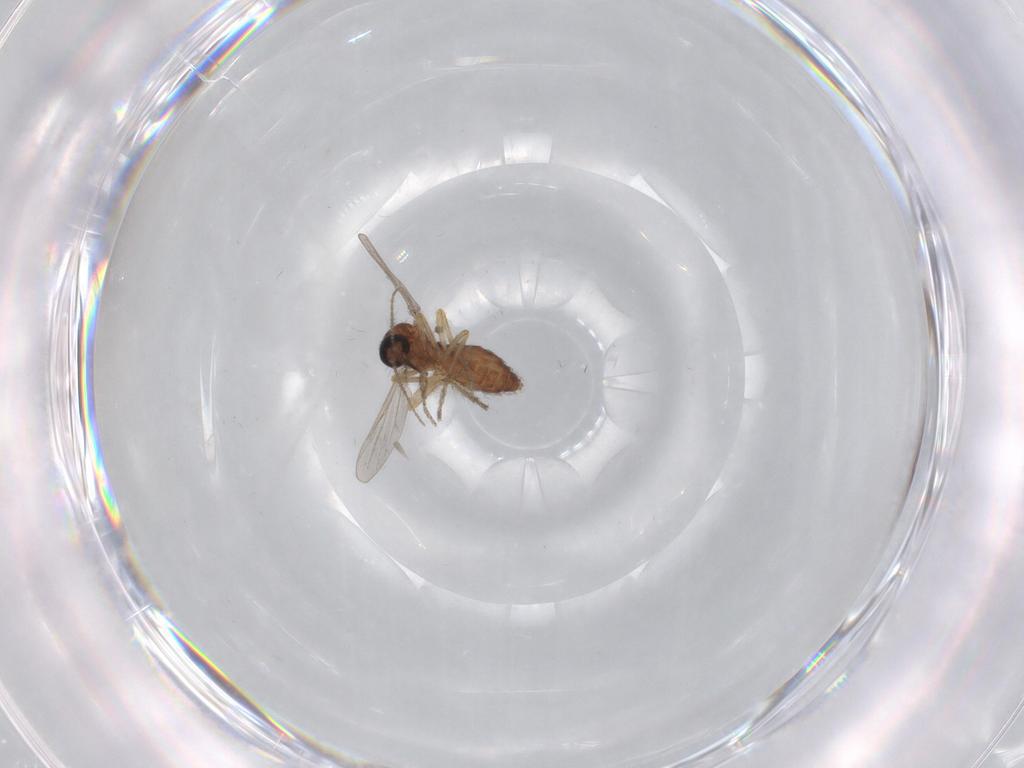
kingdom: Animalia
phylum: Arthropoda
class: Insecta
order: Diptera
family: Ceratopogonidae
